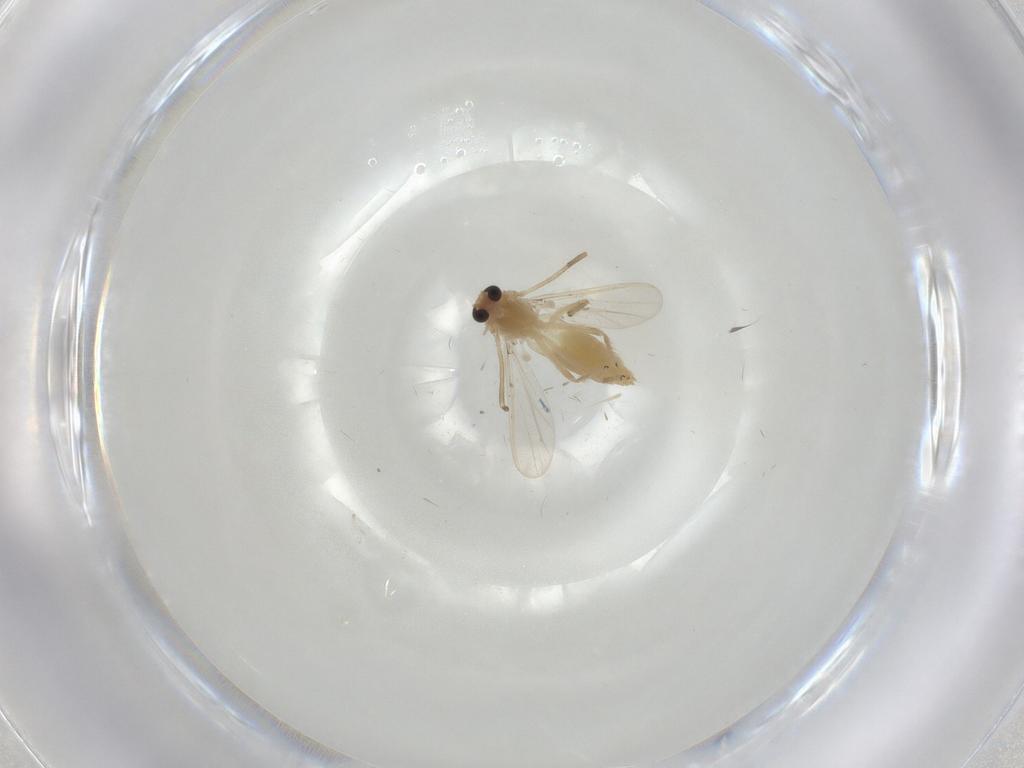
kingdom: Animalia
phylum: Arthropoda
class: Insecta
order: Diptera
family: Chironomidae
